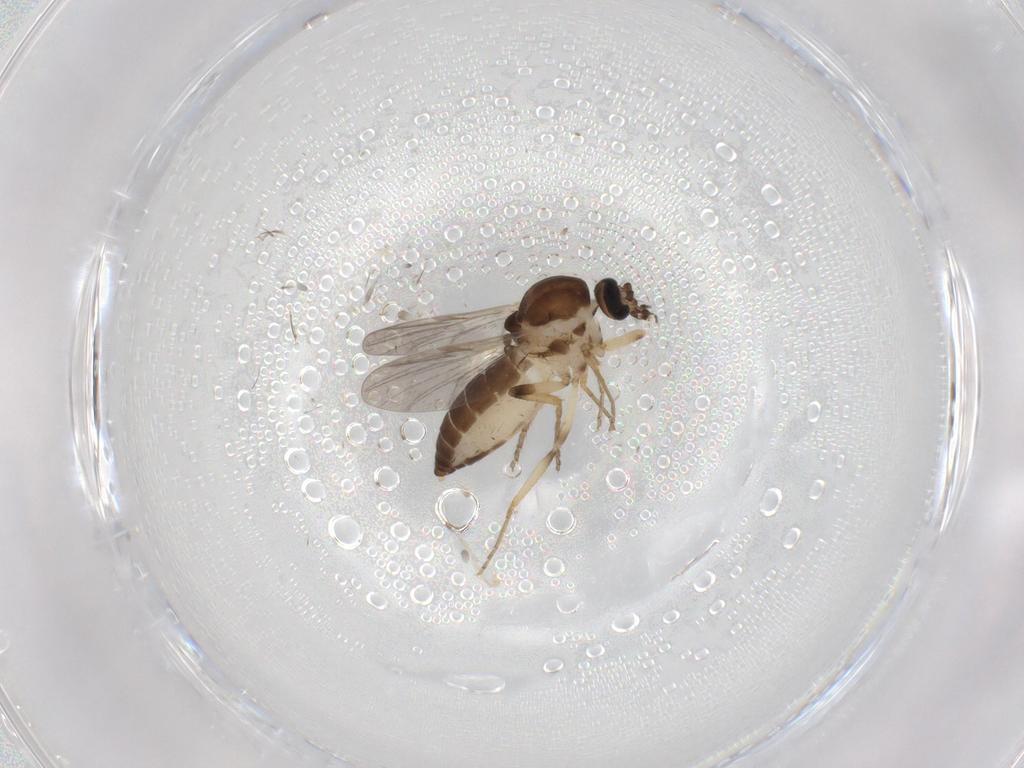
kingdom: Animalia
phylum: Arthropoda
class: Insecta
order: Diptera
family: Ceratopogonidae
